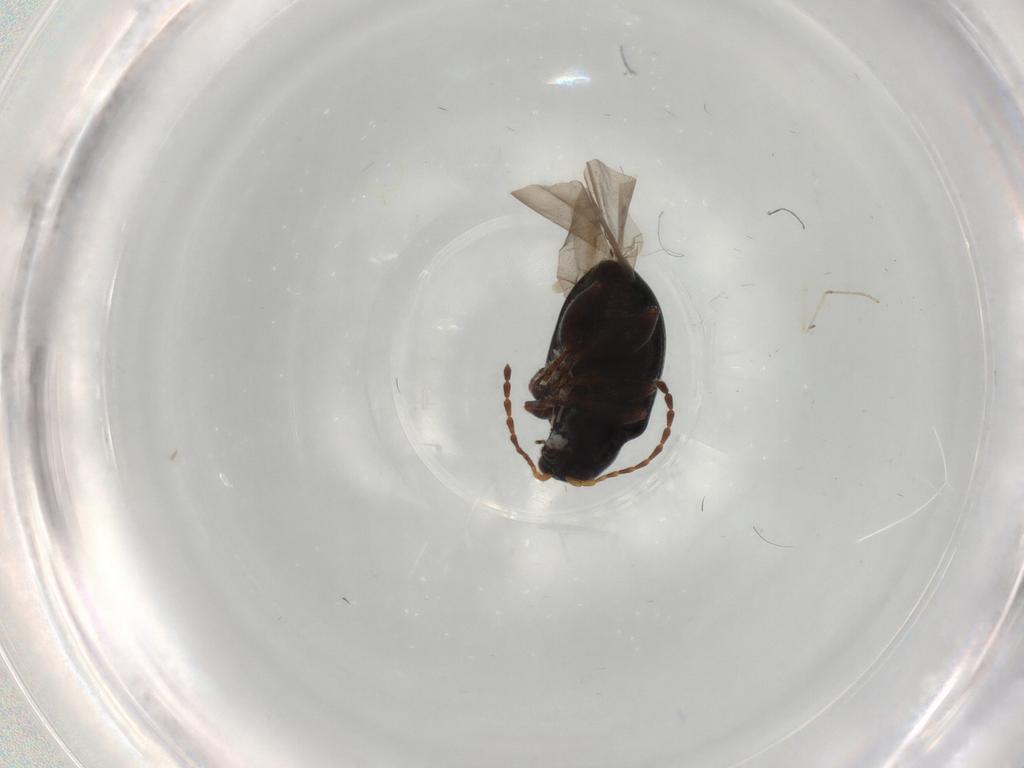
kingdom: Animalia
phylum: Arthropoda
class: Insecta
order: Coleoptera
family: Chrysomelidae
